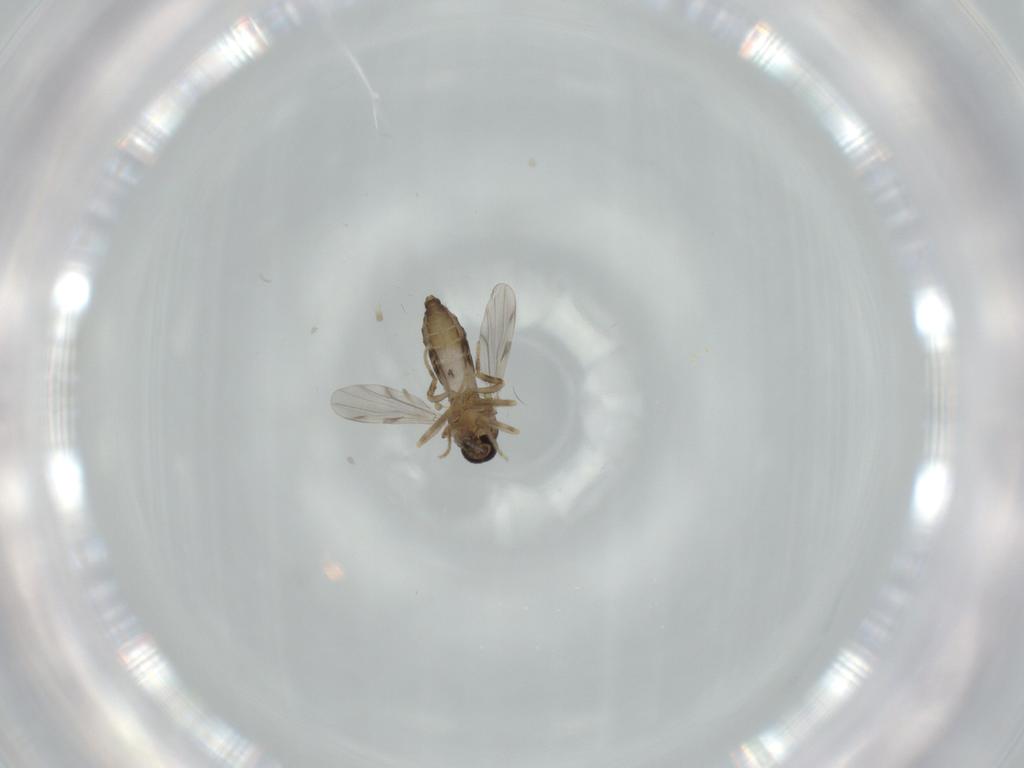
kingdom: Animalia
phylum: Arthropoda
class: Insecta
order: Diptera
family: Ceratopogonidae
